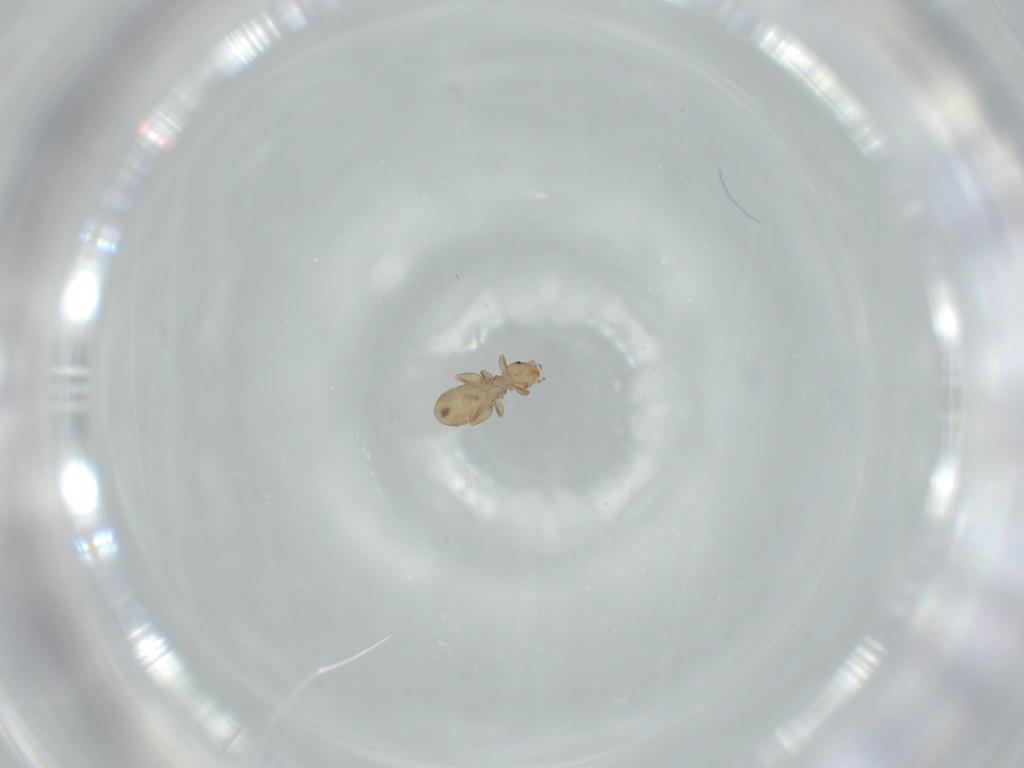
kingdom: Animalia
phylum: Arthropoda
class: Insecta
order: Psocodea
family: Liposcelididae
